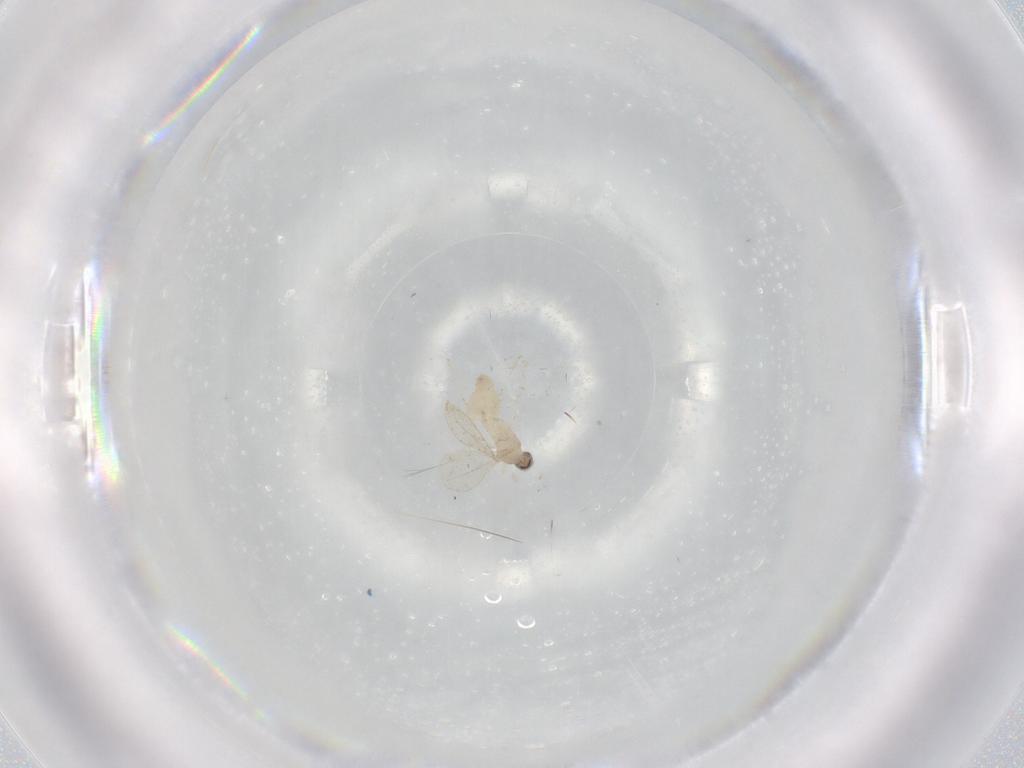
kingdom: Animalia
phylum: Arthropoda
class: Insecta
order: Diptera
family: Cecidomyiidae
